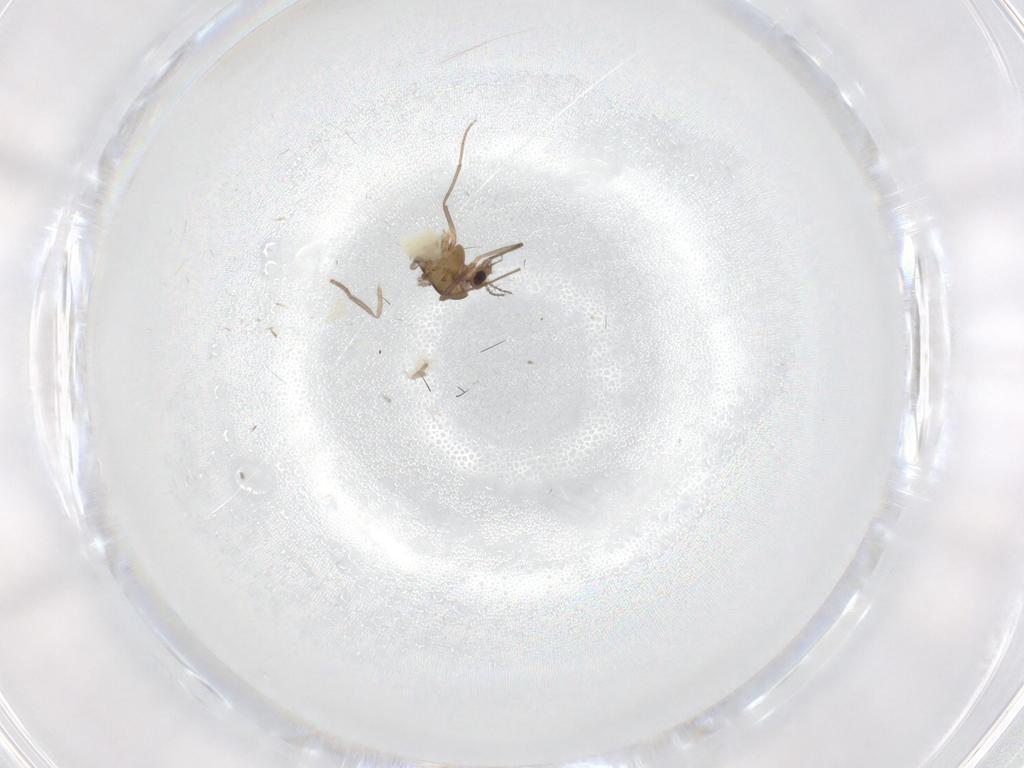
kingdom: Animalia
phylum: Arthropoda
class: Insecta
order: Diptera
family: Chironomidae
